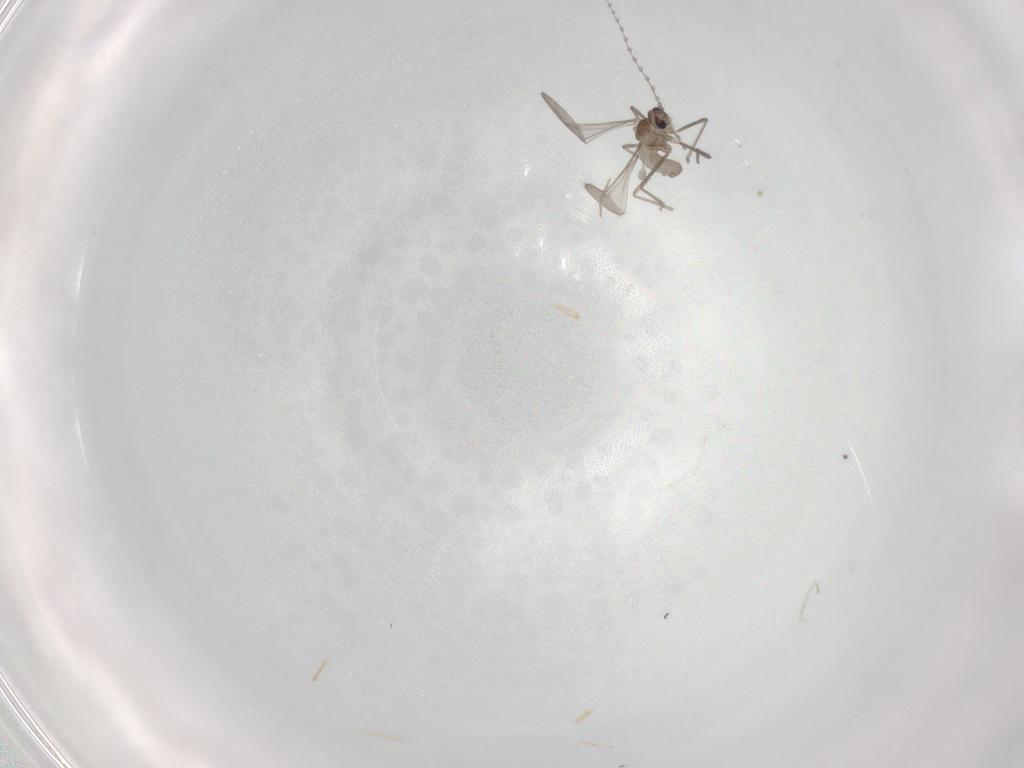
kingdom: Animalia
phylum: Arthropoda
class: Insecta
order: Diptera
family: Cecidomyiidae
